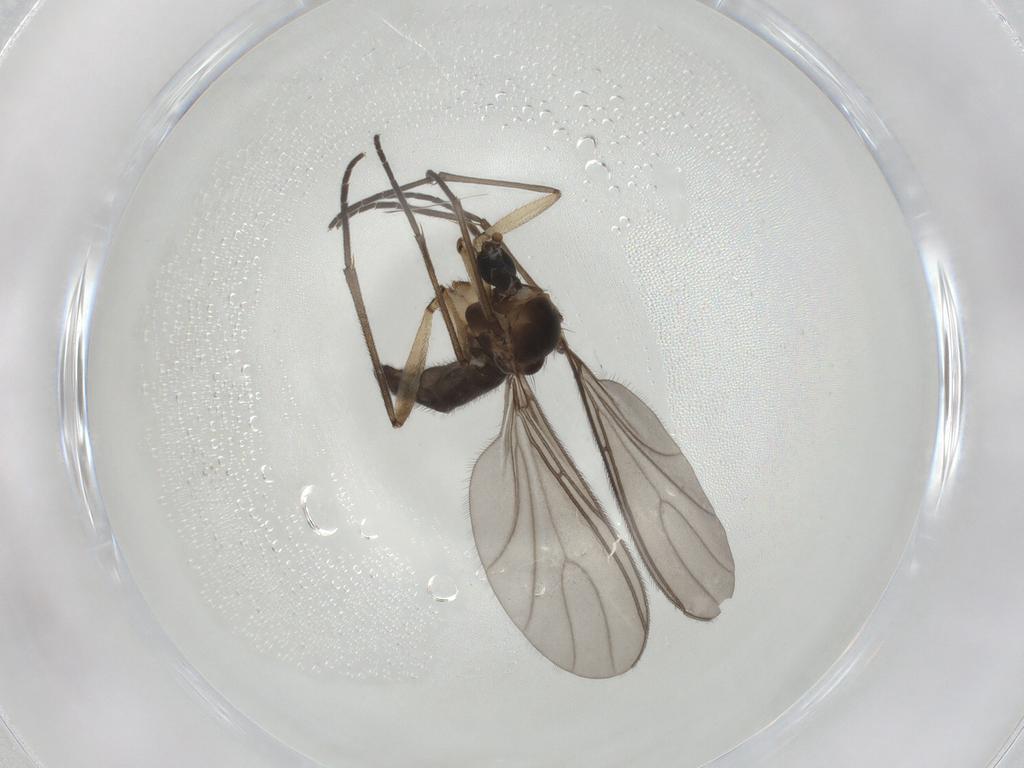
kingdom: Animalia
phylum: Arthropoda
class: Insecta
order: Diptera
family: Sciaridae
